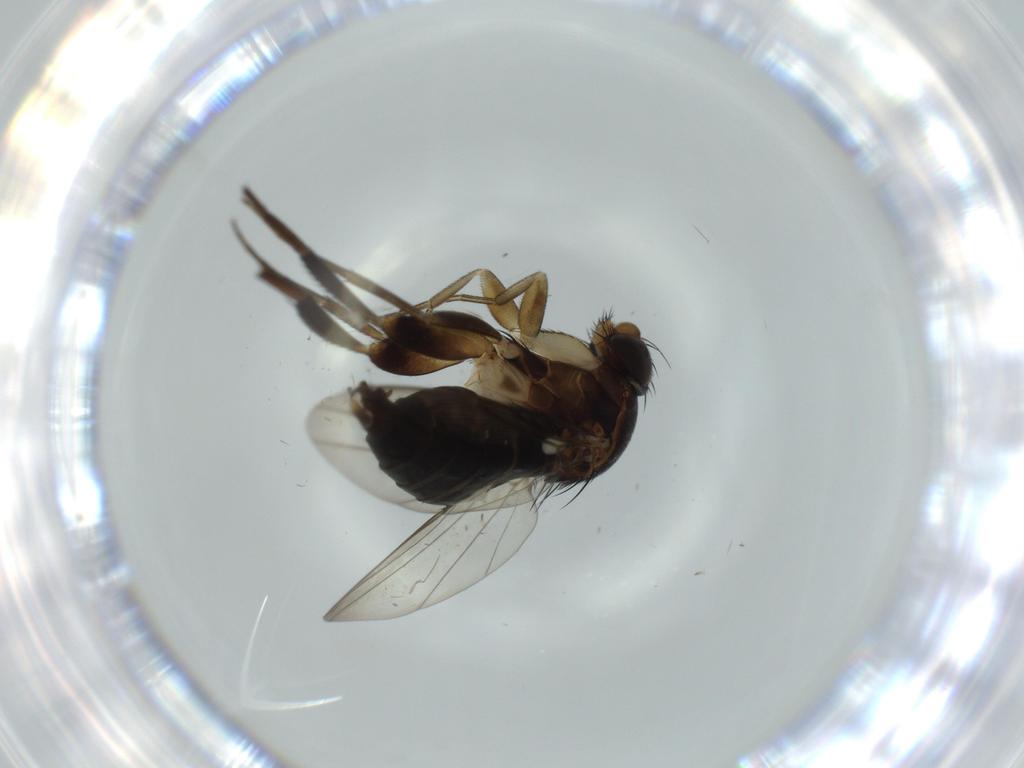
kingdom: Animalia
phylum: Arthropoda
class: Insecta
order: Diptera
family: Phoridae
